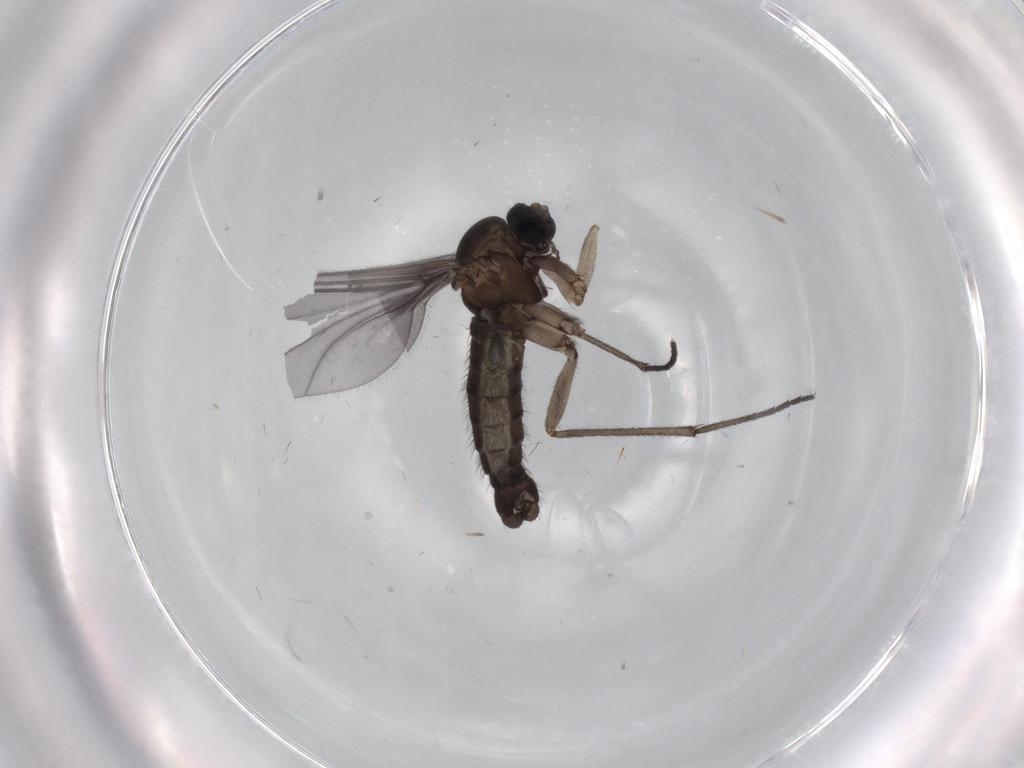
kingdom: Animalia
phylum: Arthropoda
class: Insecta
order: Diptera
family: Sciaridae
